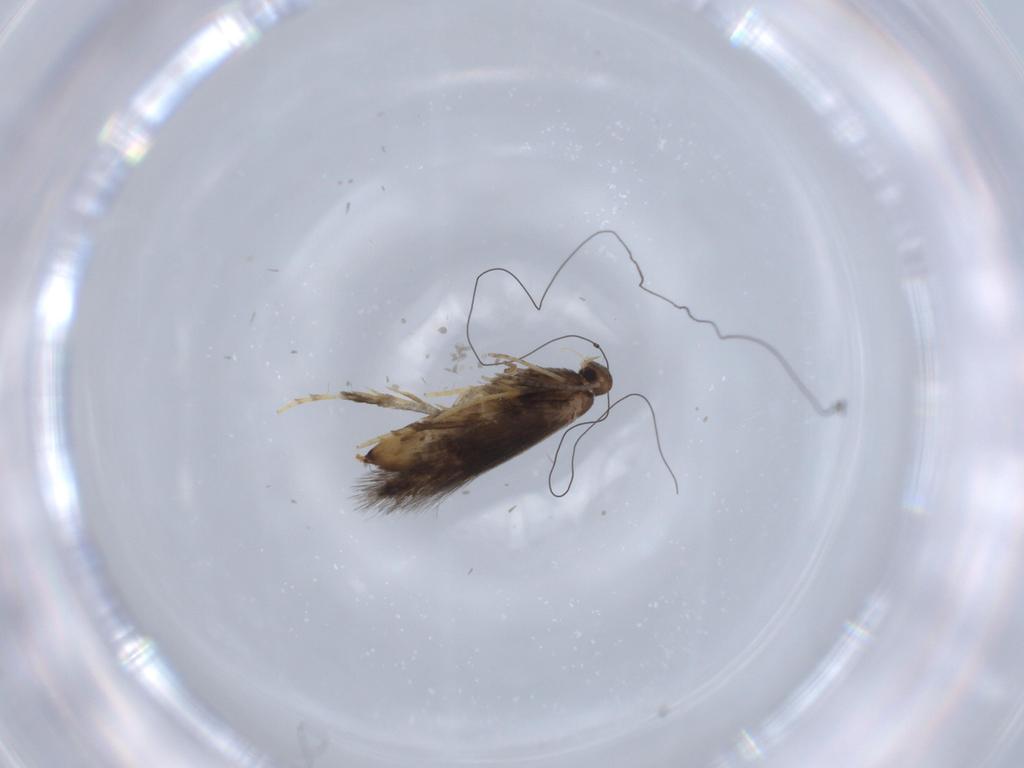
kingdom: Animalia
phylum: Arthropoda
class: Insecta
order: Lepidoptera
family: Heliozelidae
